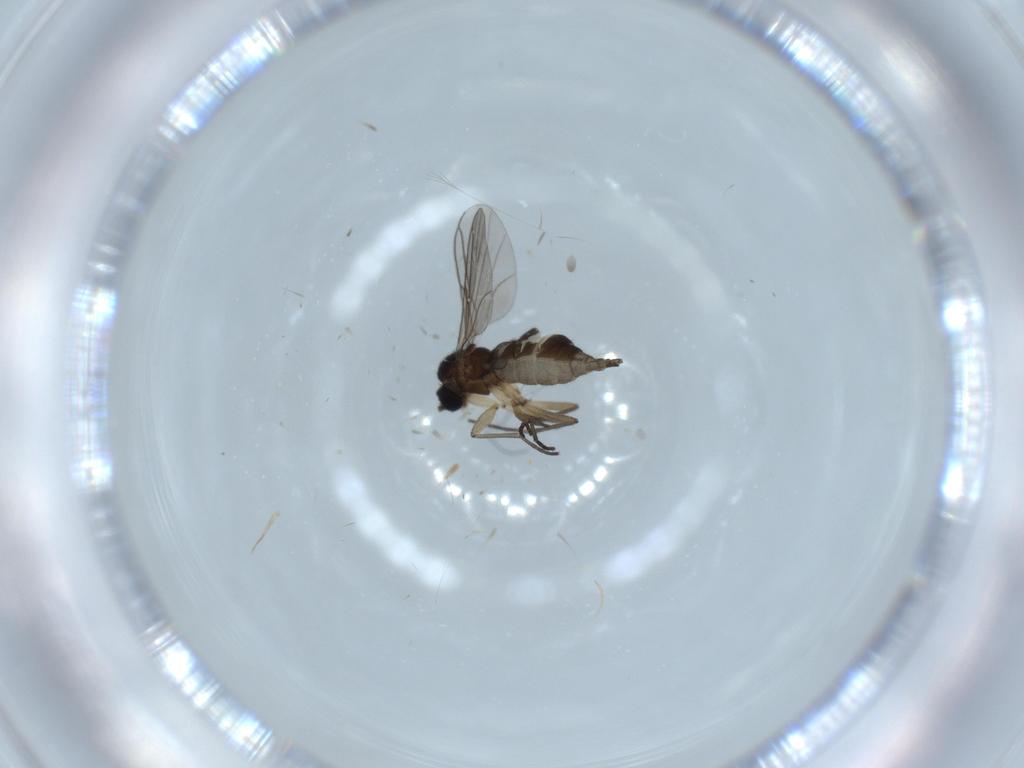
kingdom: Animalia
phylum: Arthropoda
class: Insecta
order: Diptera
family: Sciaridae
